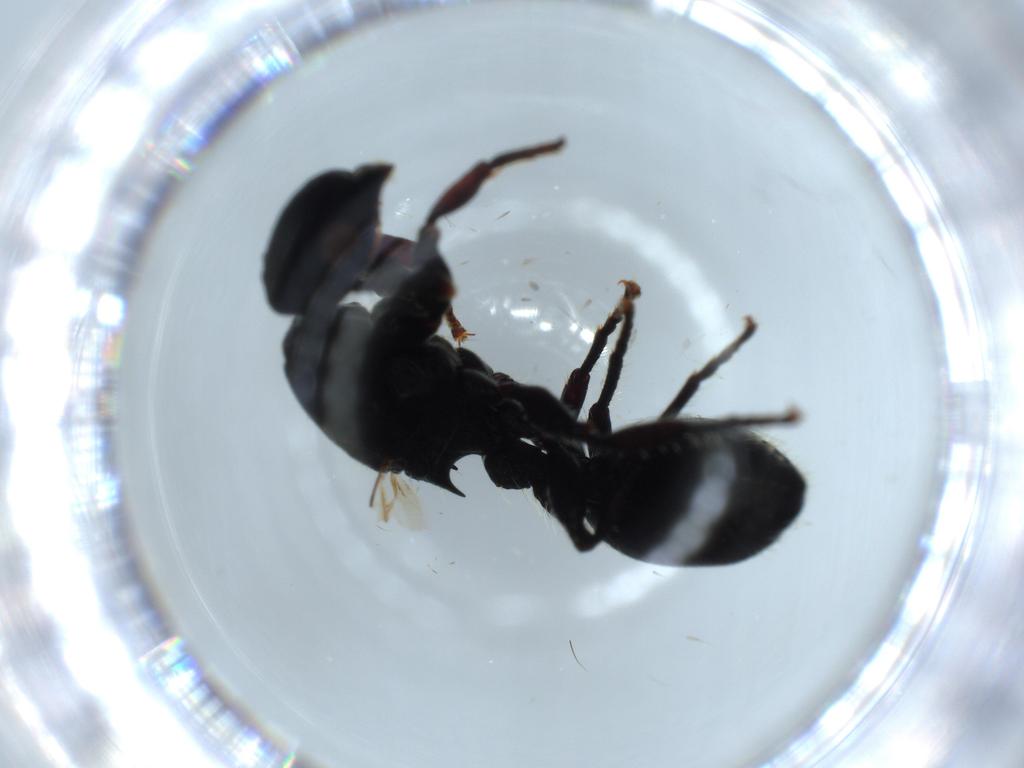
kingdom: Animalia
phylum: Arthropoda
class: Insecta
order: Hymenoptera
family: Formicidae
